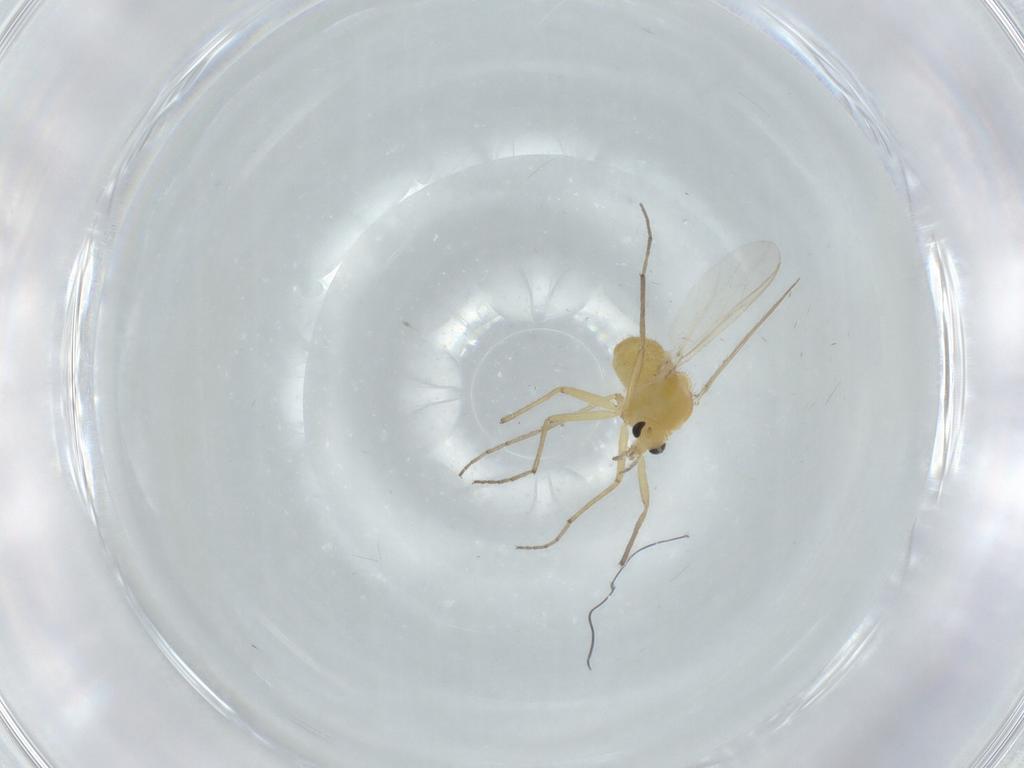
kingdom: Animalia
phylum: Arthropoda
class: Insecta
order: Diptera
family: Chironomidae
